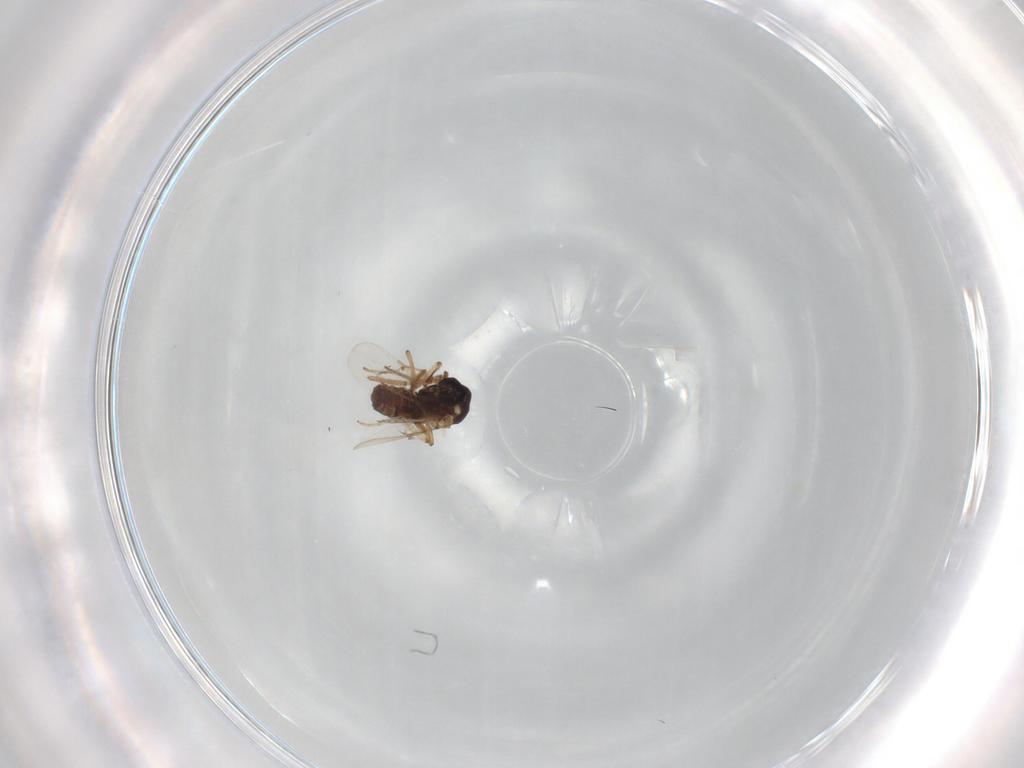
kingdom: Animalia
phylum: Arthropoda
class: Insecta
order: Diptera
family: Ceratopogonidae
